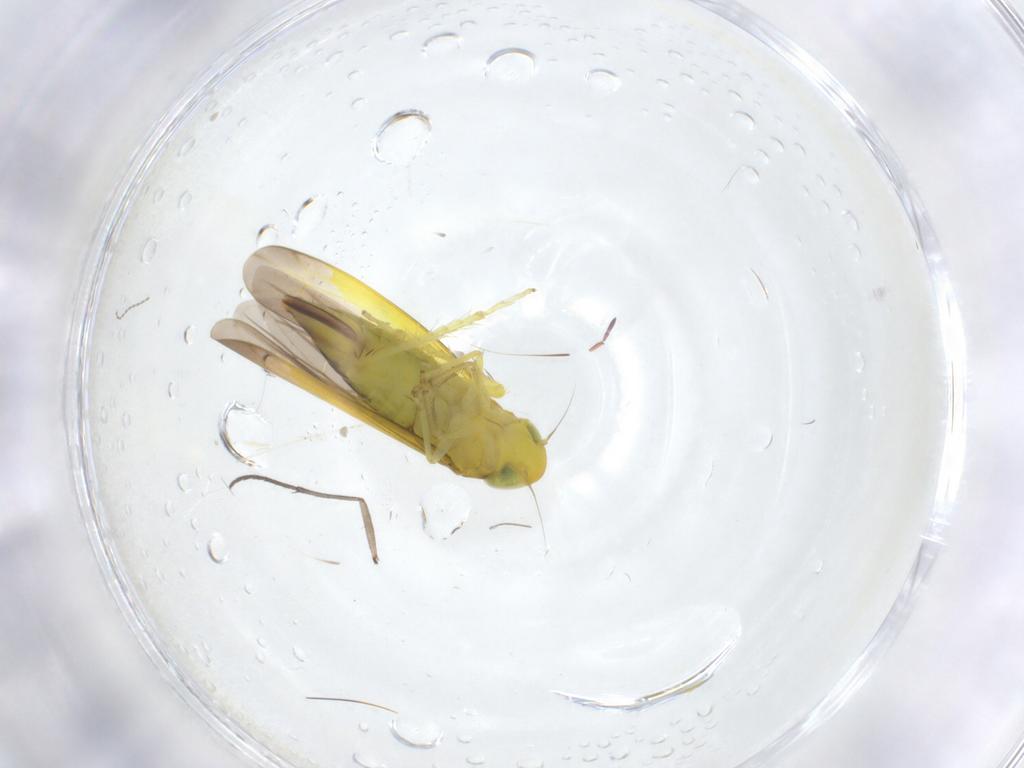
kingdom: Animalia
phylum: Arthropoda
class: Insecta
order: Hemiptera
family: Cicadellidae
